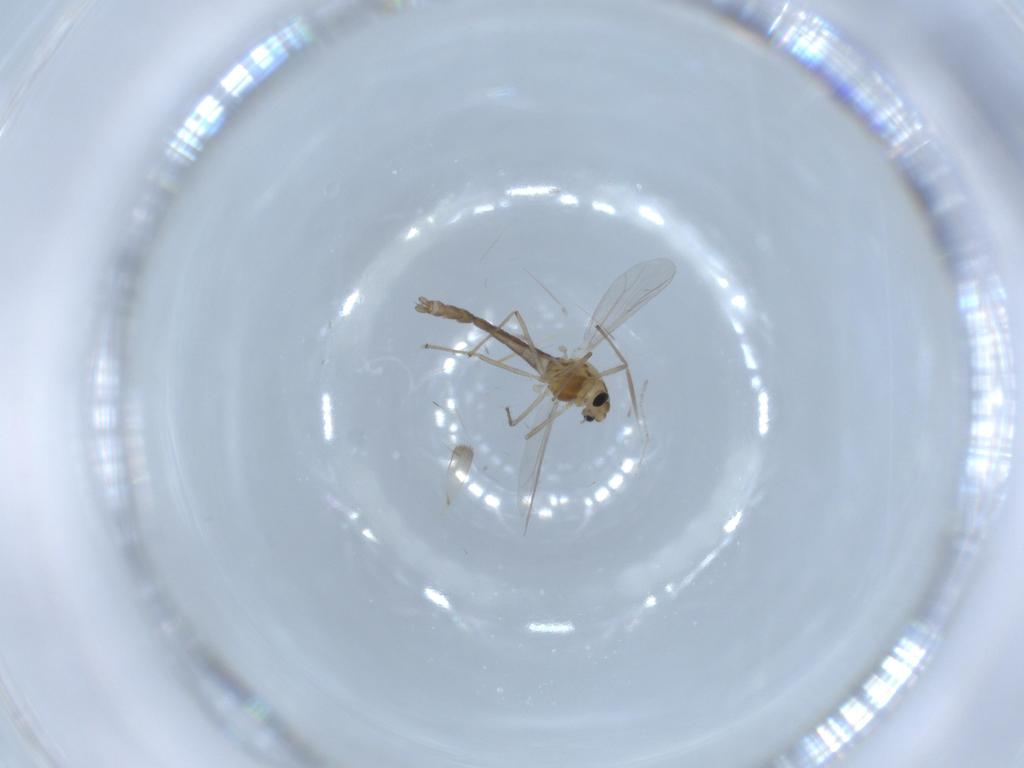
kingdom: Animalia
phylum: Arthropoda
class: Insecta
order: Diptera
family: Chironomidae
